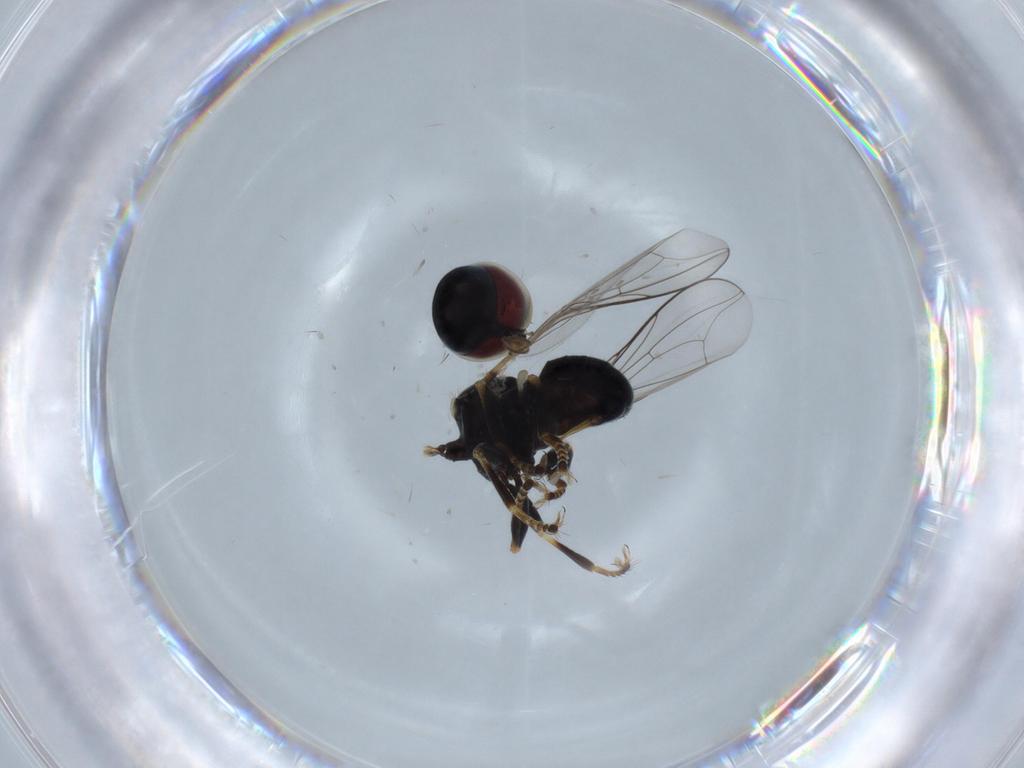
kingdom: Animalia
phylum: Arthropoda
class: Insecta
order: Diptera
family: Pipunculidae
